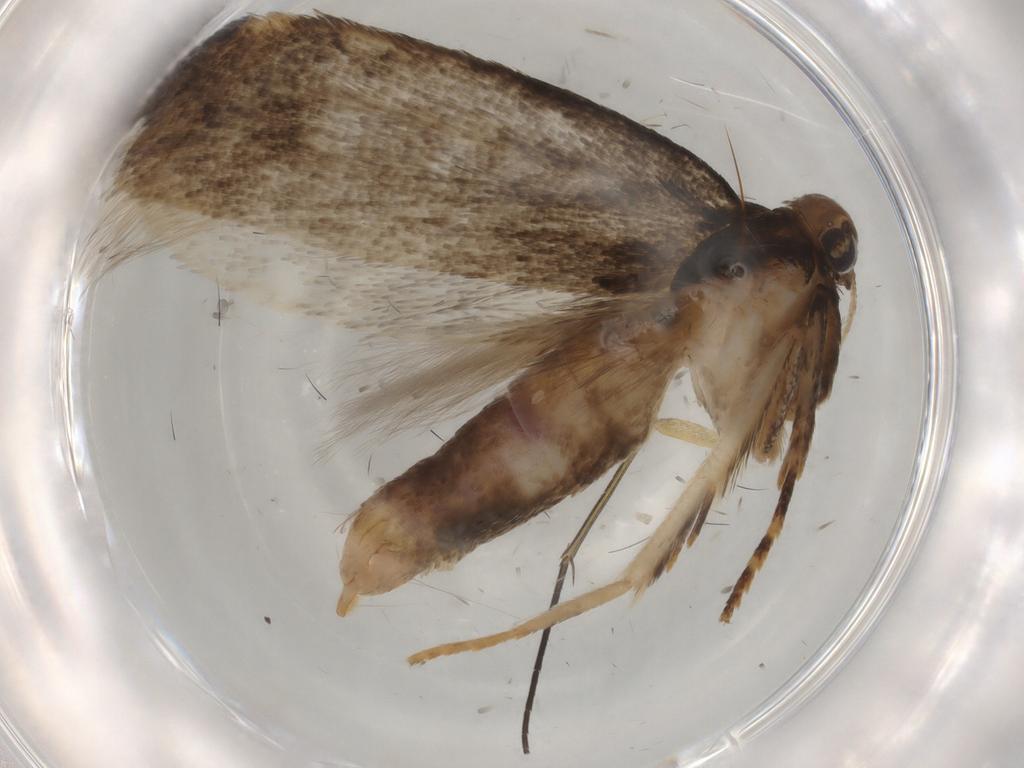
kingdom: Animalia
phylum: Arthropoda
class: Insecta
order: Lepidoptera
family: Gelechiidae
